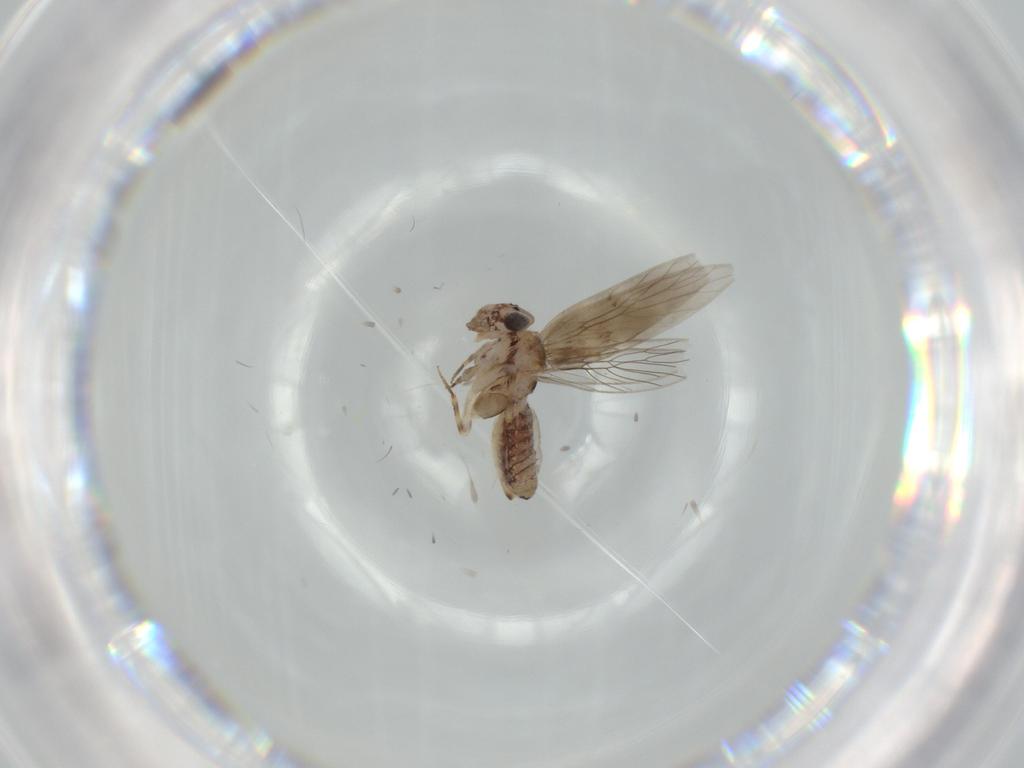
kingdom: Animalia
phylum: Arthropoda
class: Insecta
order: Psocodea
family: Lepidopsocidae
